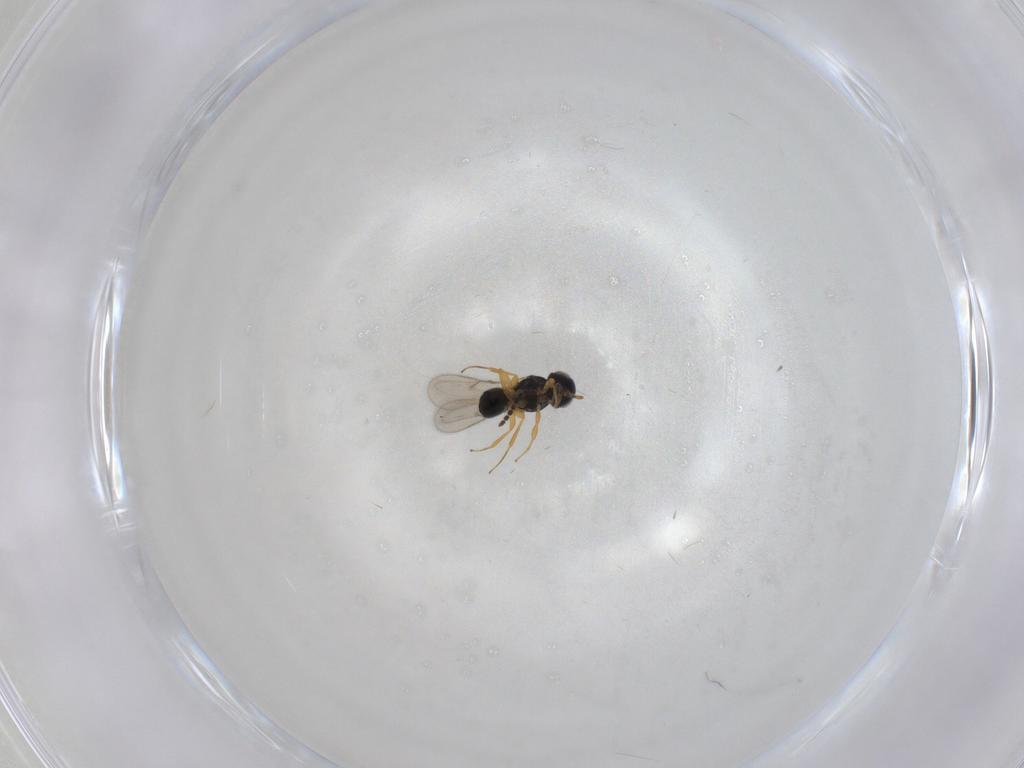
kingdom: Animalia
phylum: Arthropoda
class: Insecta
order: Hymenoptera
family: Scelionidae
